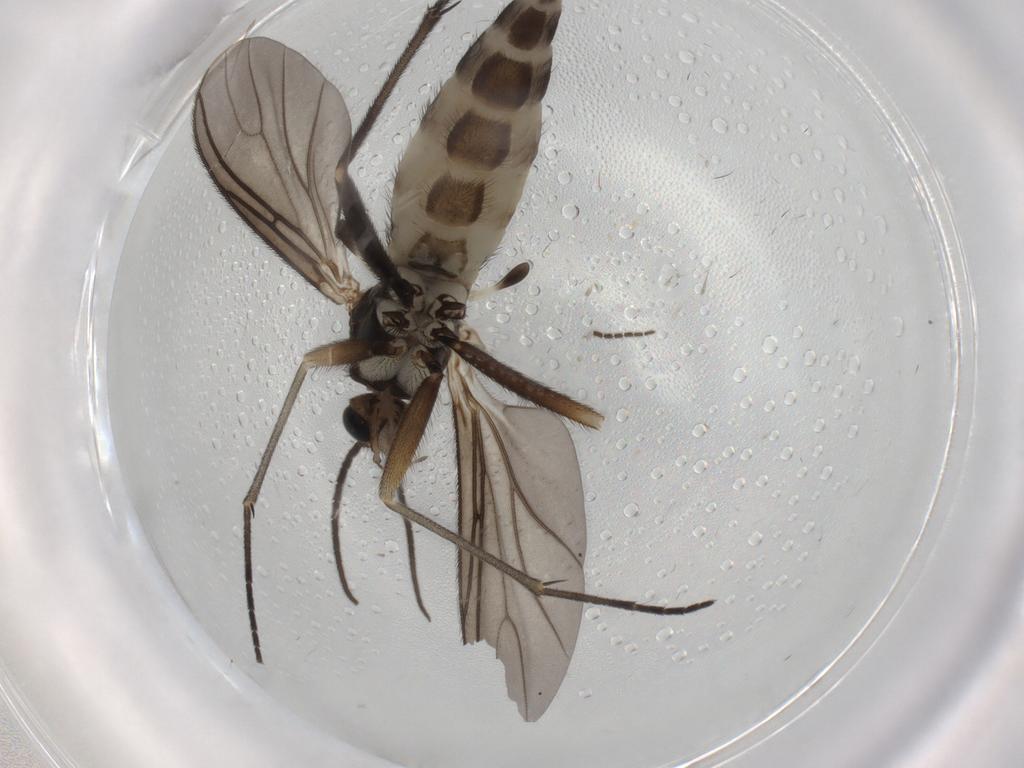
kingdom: Animalia
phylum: Arthropoda
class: Insecta
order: Diptera
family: Sciaridae
